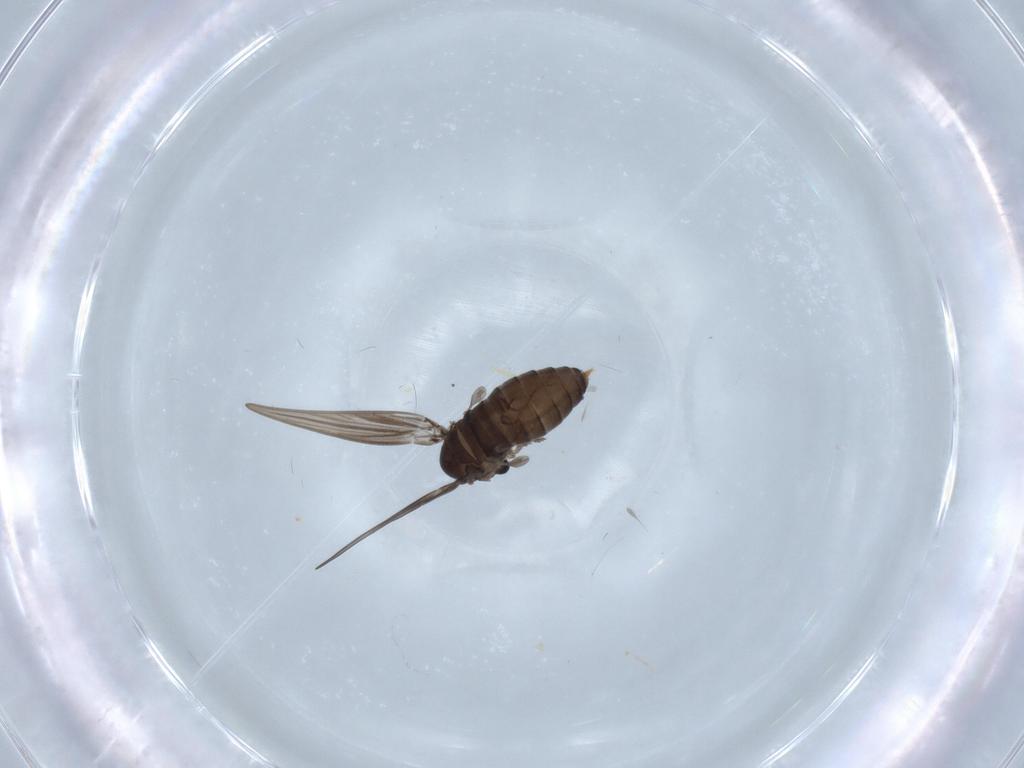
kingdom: Animalia
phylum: Arthropoda
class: Insecta
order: Diptera
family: Psychodidae
